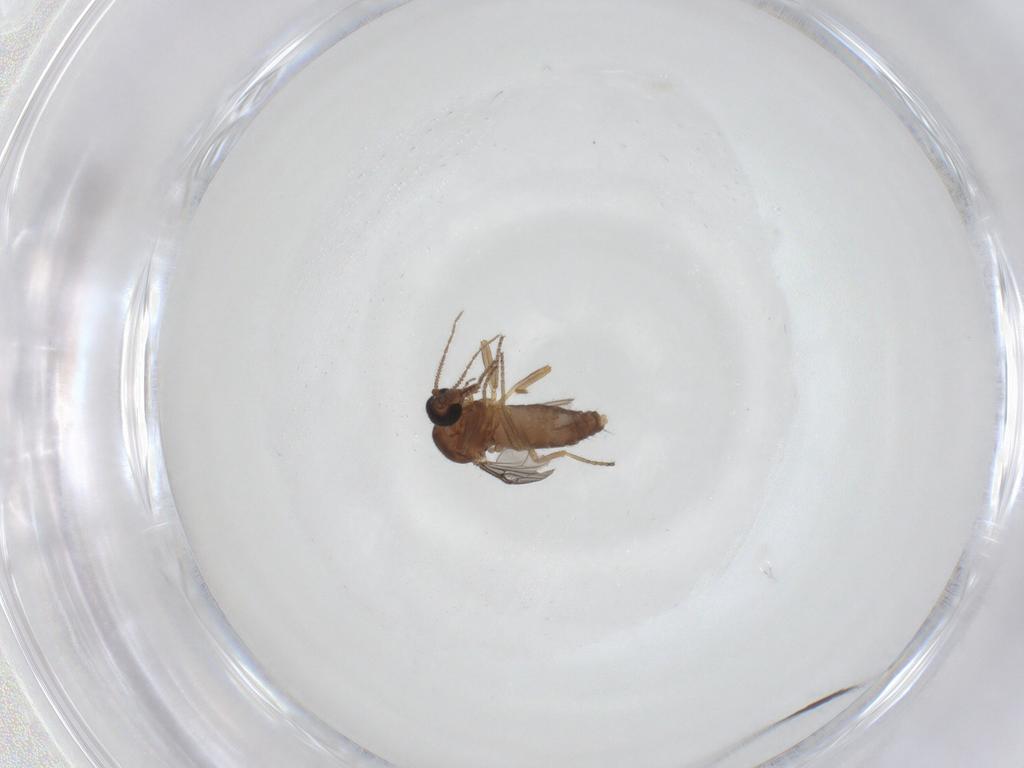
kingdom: Animalia
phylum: Arthropoda
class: Insecta
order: Diptera
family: Ceratopogonidae
